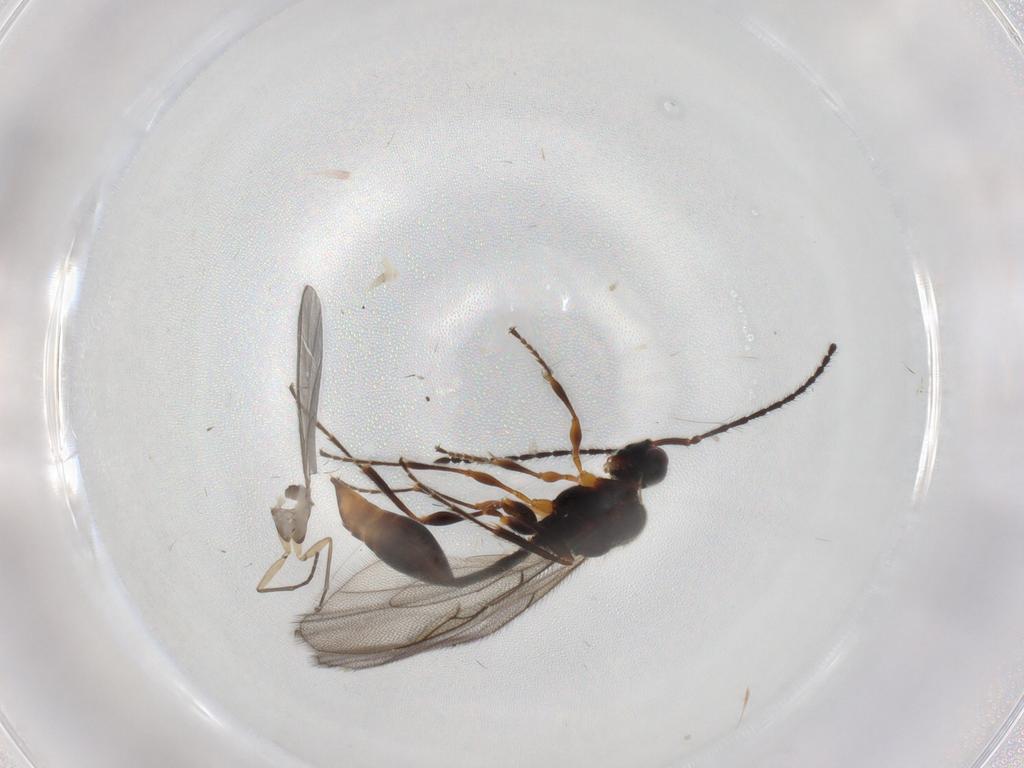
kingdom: Animalia
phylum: Arthropoda
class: Insecta
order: Hymenoptera
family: Diapriidae
